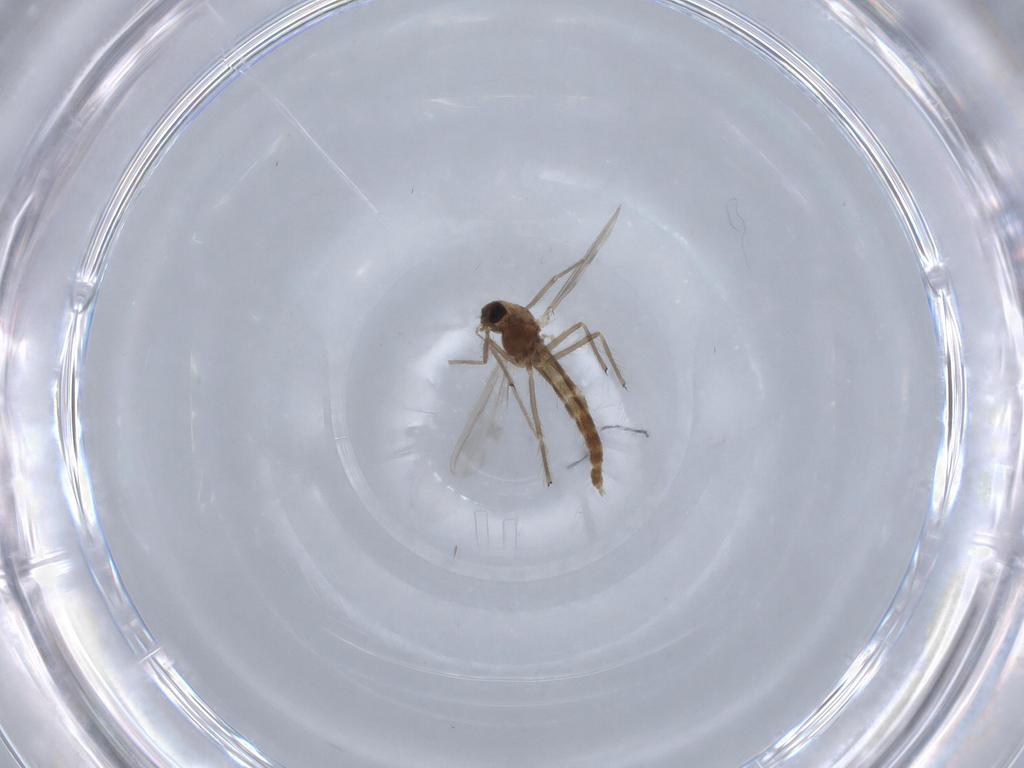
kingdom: Animalia
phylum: Arthropoda
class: Insecta
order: Diptera
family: Chironomidae
